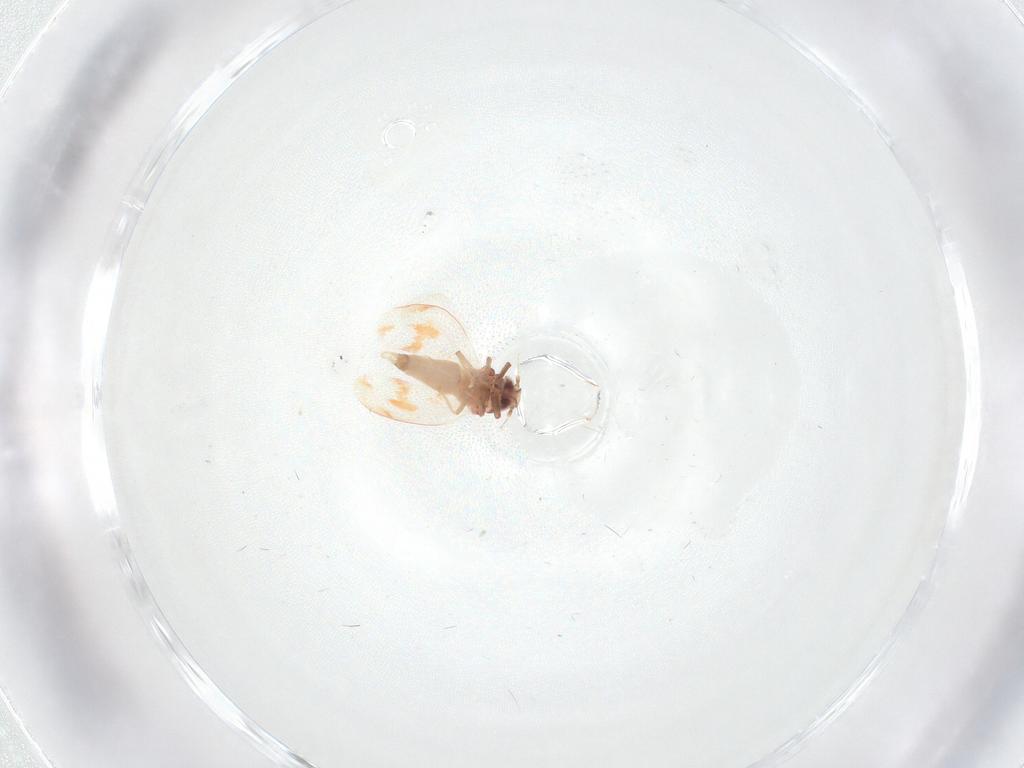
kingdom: Animalia
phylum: Arthropoda
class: Insecta
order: Hemiptera
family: Aleyrodidae
